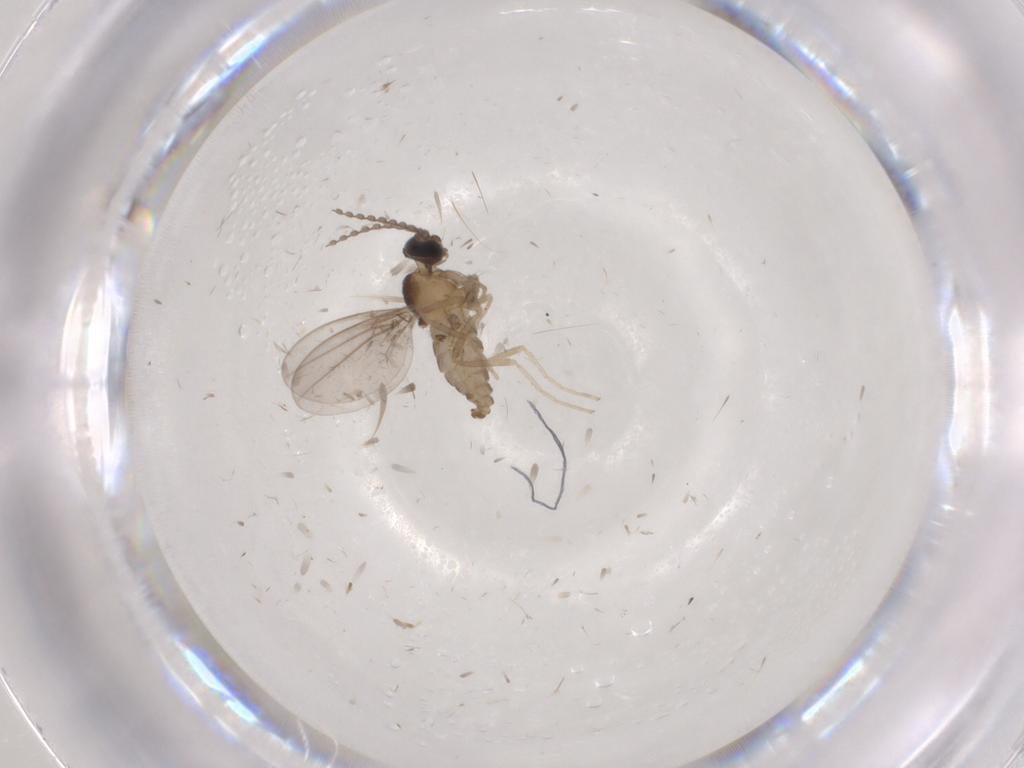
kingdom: Animalia
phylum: Arthropoda
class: Insecta
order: Diptera
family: Cecidomyiidae
